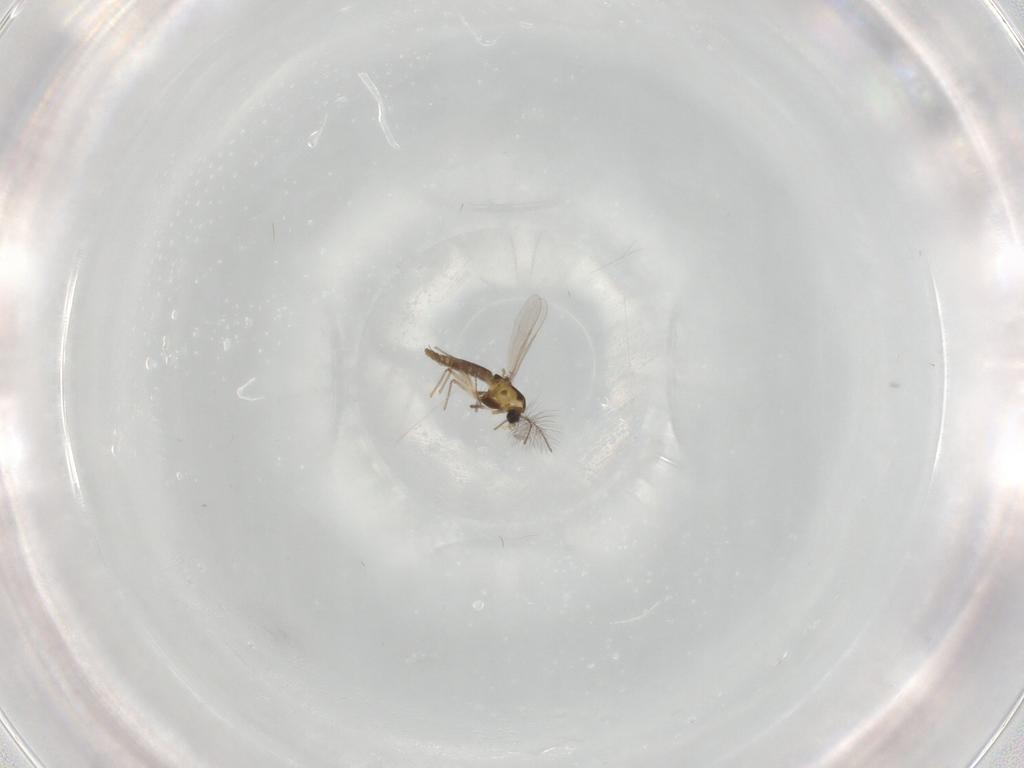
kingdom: Animalia
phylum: Arthropoda
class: Insecta
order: Diptera
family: Chironomidae
